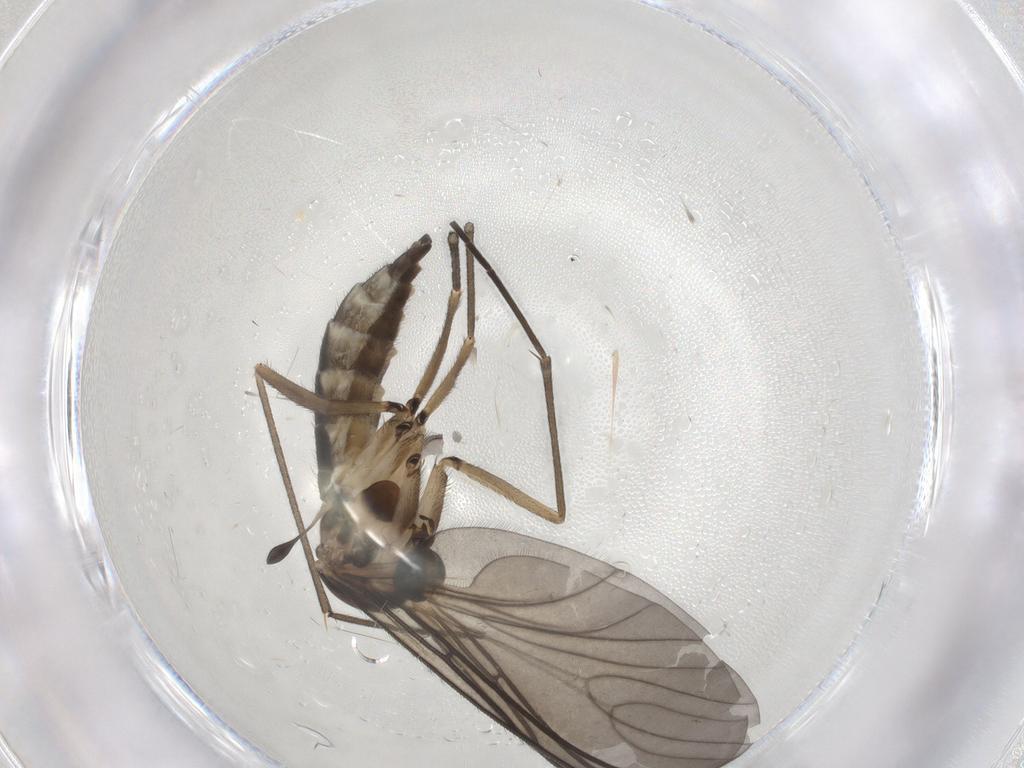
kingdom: Animalia
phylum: Arthropoda
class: Insecta
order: Diptera
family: Sciaridae
